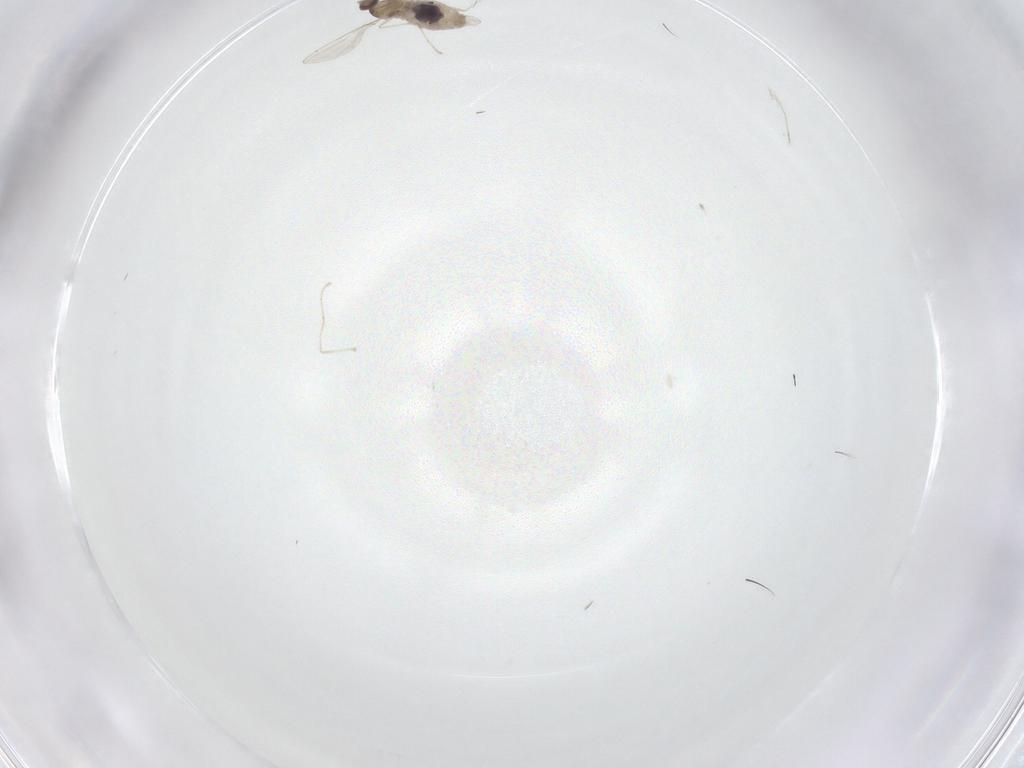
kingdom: Animalia
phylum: Arthropoda
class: Insecta
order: Diptera
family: Cecidomyiidae
